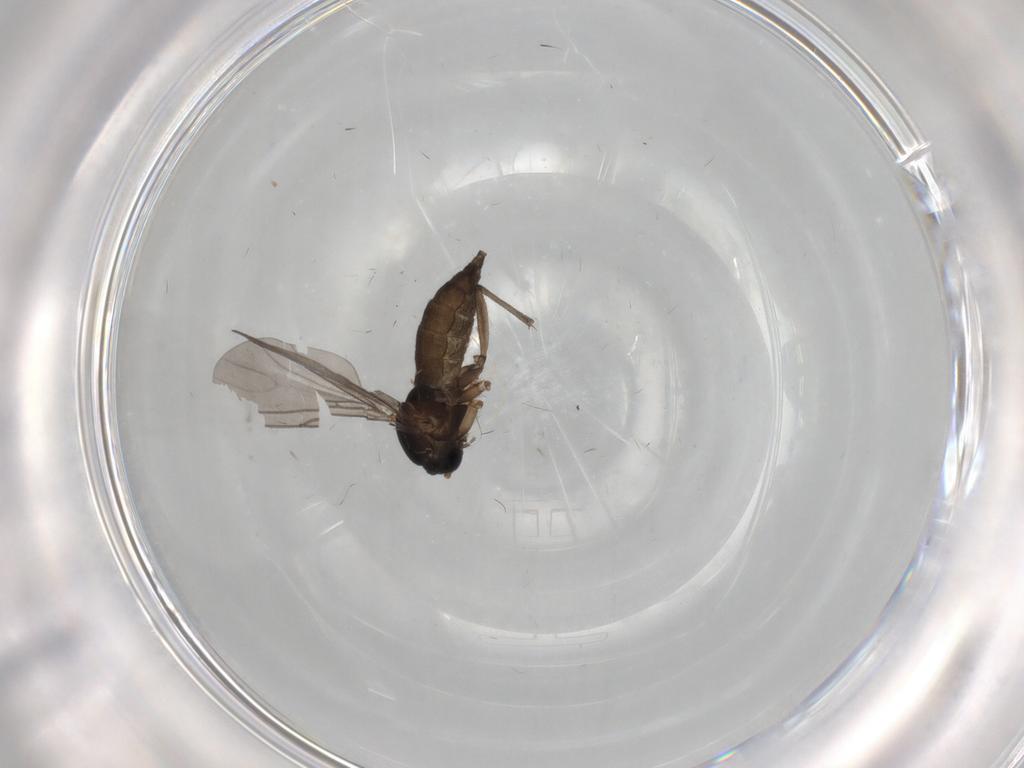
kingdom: Animalia
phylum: Arthropoda
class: Insecta
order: Diptera
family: Sciaridae
